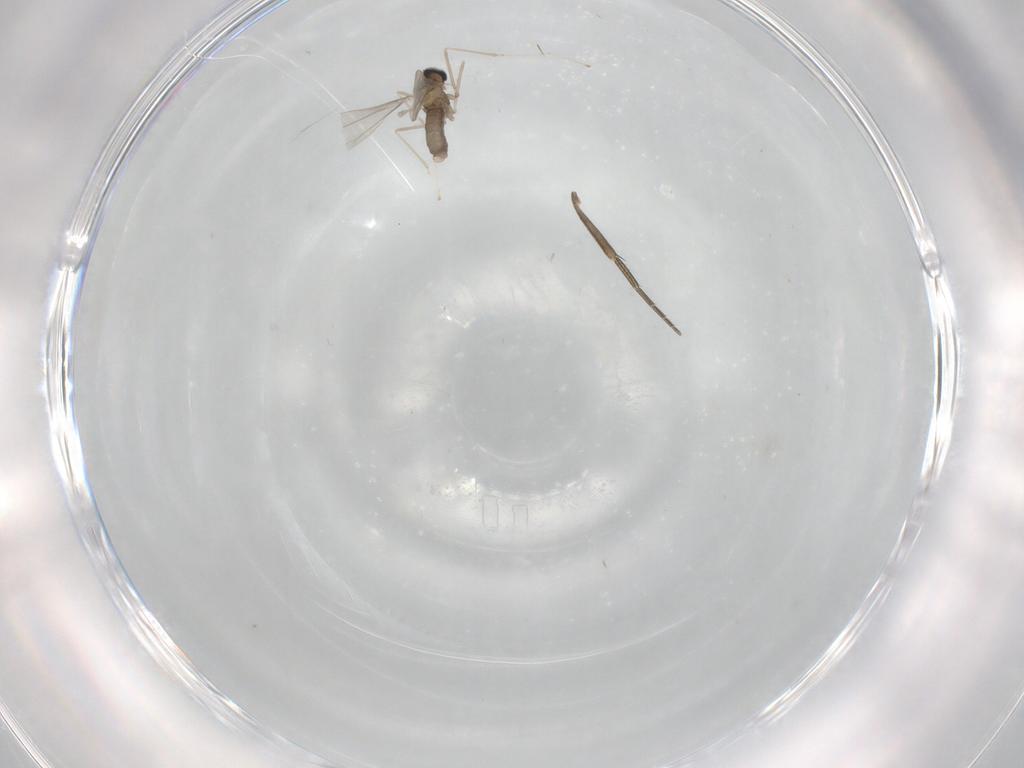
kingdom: Animalia
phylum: Arthropoda
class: Insecta
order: Diptera
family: Cecidomyiidae
